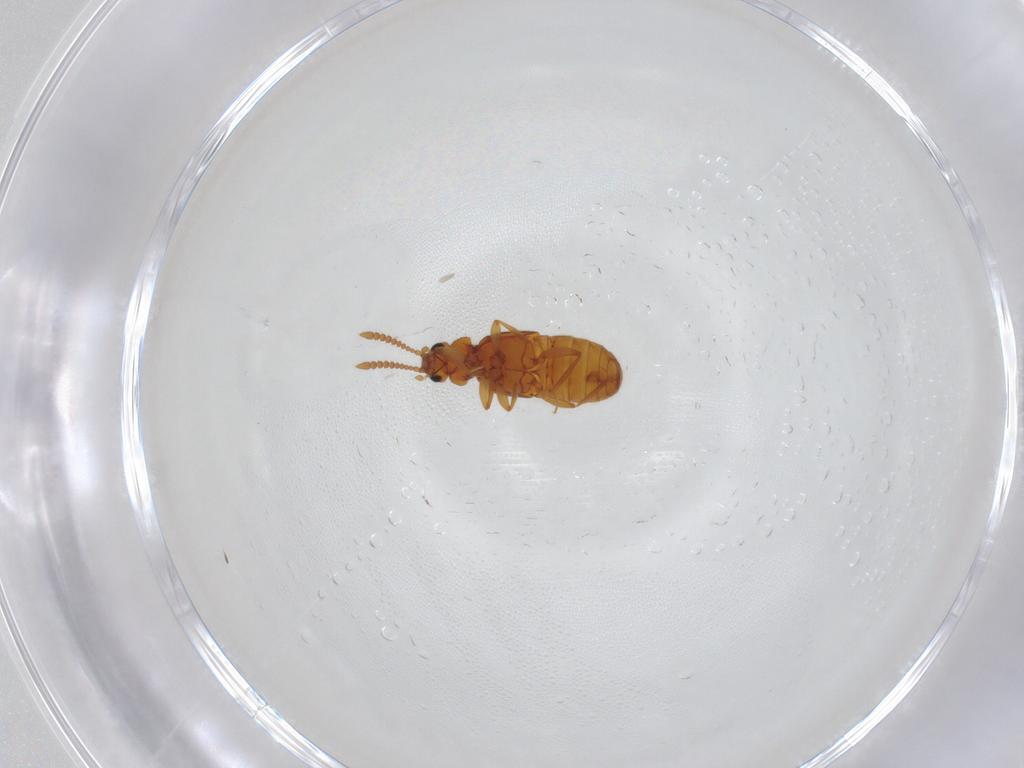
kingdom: Animalia
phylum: Arthropoda
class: Insecta
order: Coleoptera
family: Staphylinidae
